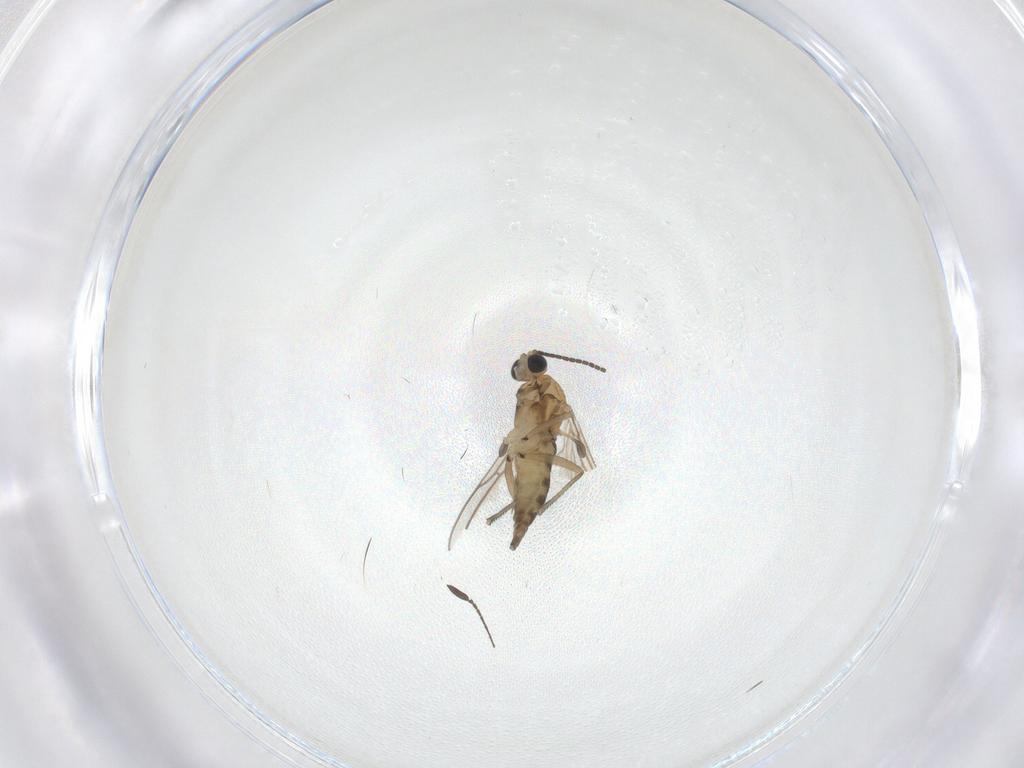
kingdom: Animalia
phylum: Arthropoda
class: Insecta
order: Diptera
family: Sciaridae
